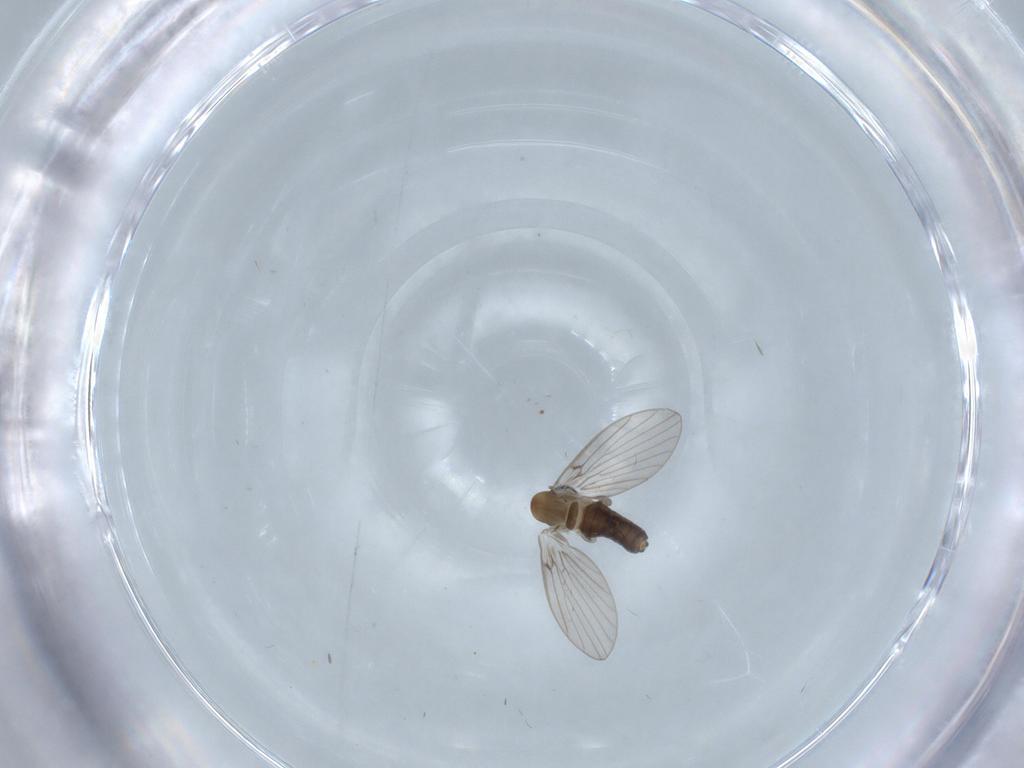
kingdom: Animalia
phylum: Arthropoda
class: Insecta
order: Diptera
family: Psychodidae
